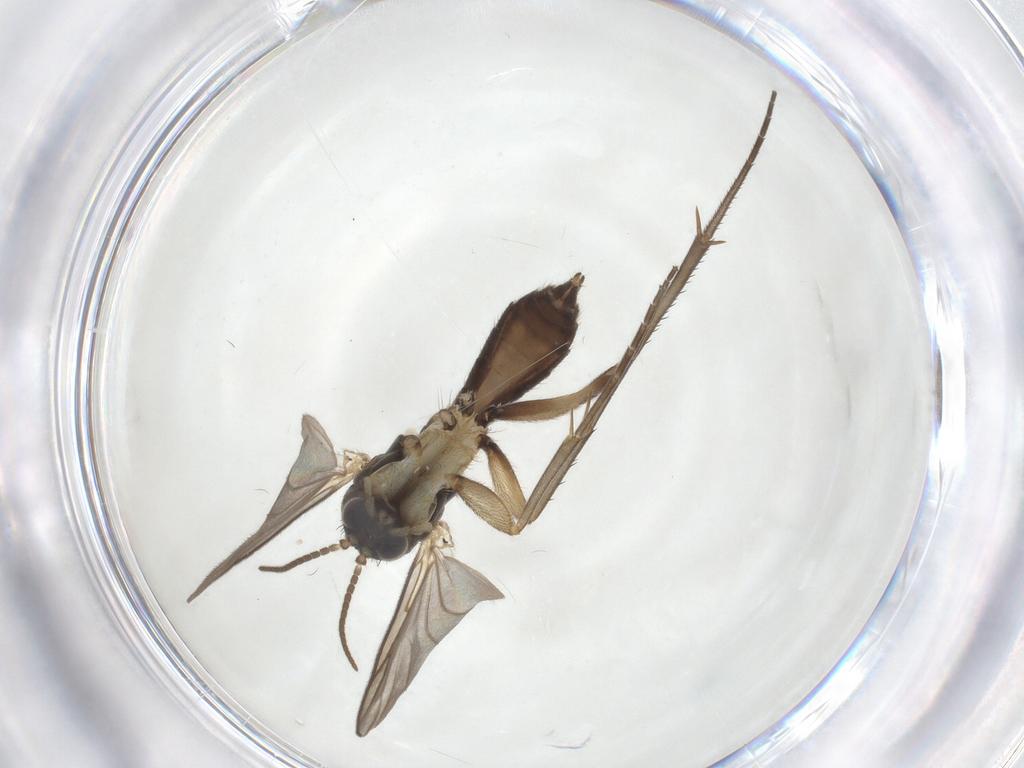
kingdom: Animalia
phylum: Arthropoda
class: Insecta
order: Diptera
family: Mycetophilidae
